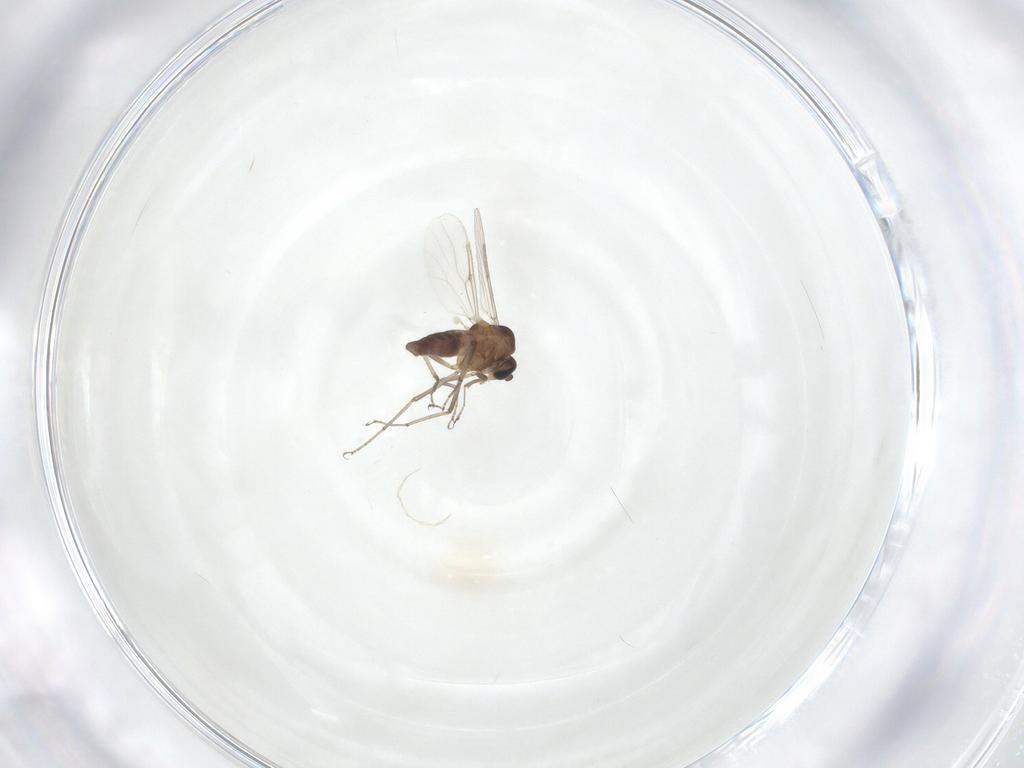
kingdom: Animalia
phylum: Arthropoda
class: Insecta
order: Diptera
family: Ceratopogonidae
